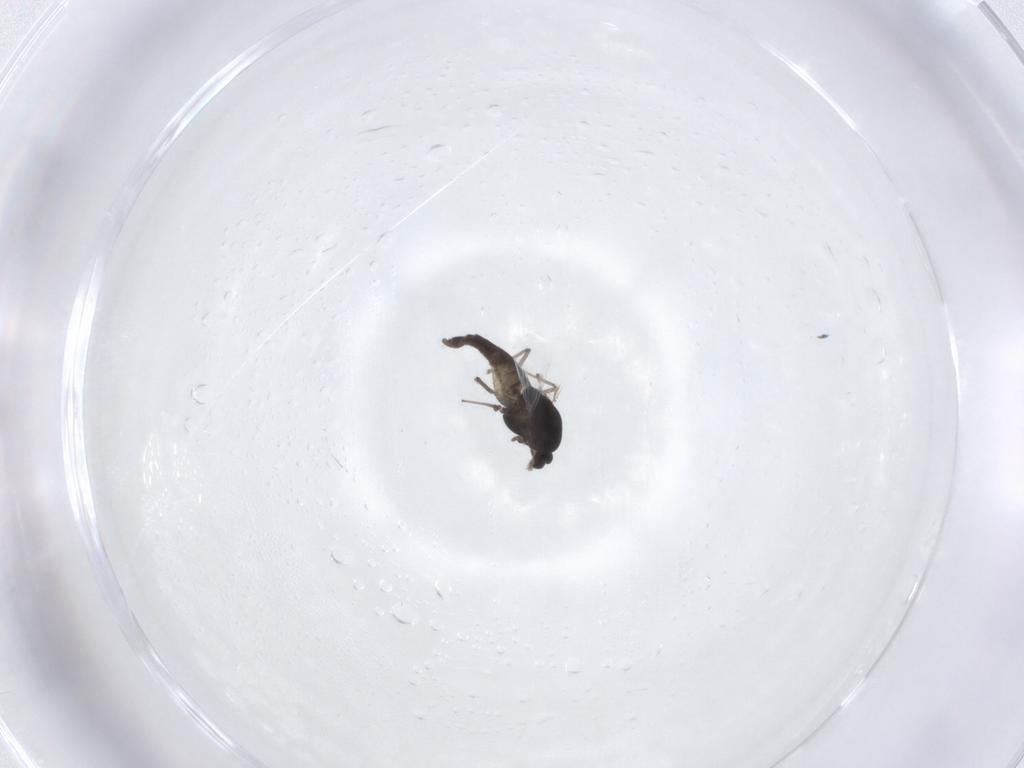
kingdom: Animalia
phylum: Arthropoda
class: Insecta
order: Diptera
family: Chironomidae
